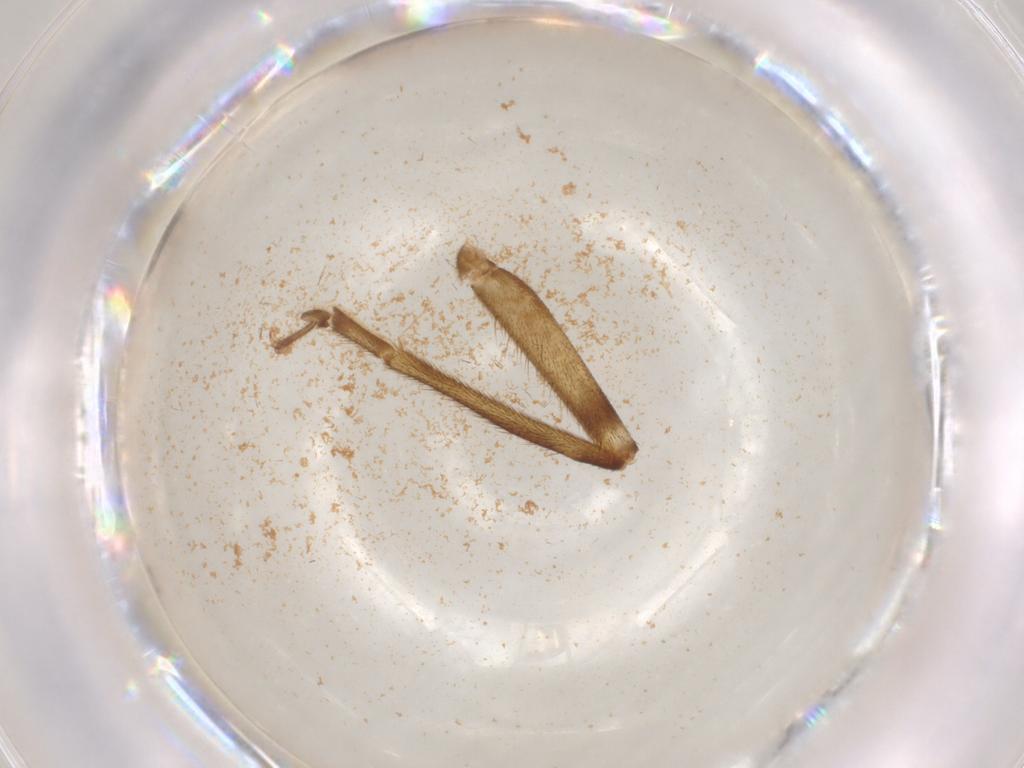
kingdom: Animalia
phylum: Arthropoda
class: Insecta
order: Orthoptera
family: Trigonidiidae
